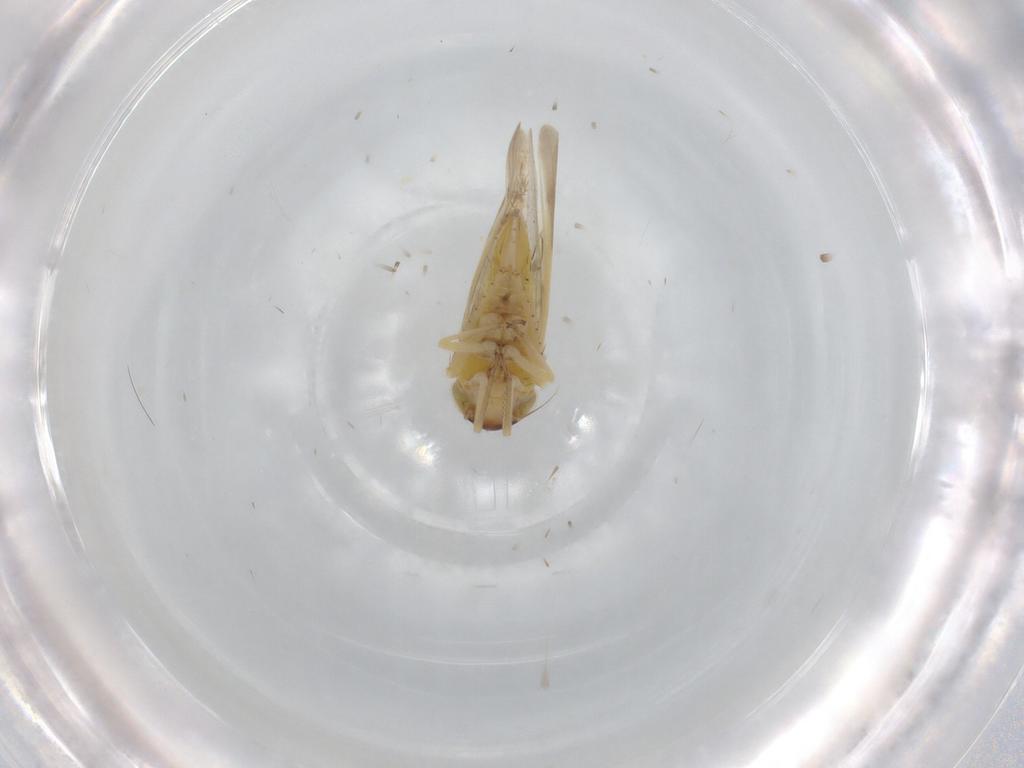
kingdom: Animalia
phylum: Arthropoda
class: Insecta
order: Hemiptera
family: Cicadellidae
